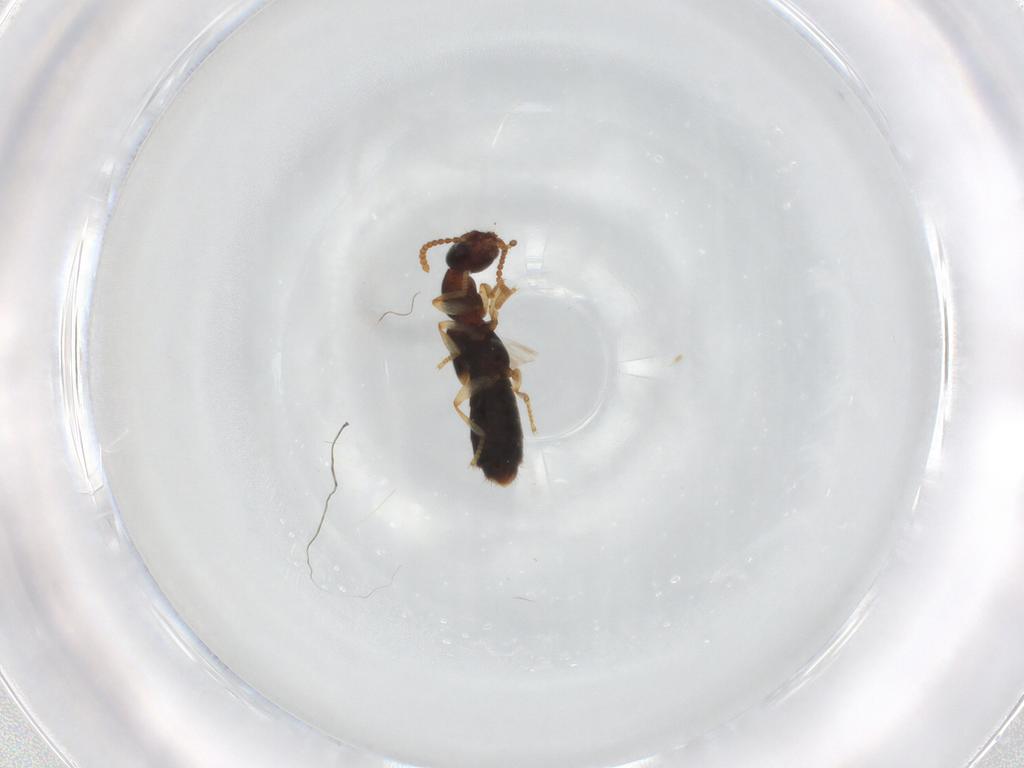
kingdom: Animalia
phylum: Arthropoda
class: Insecta
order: Coleoptera
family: Staphylinidae
